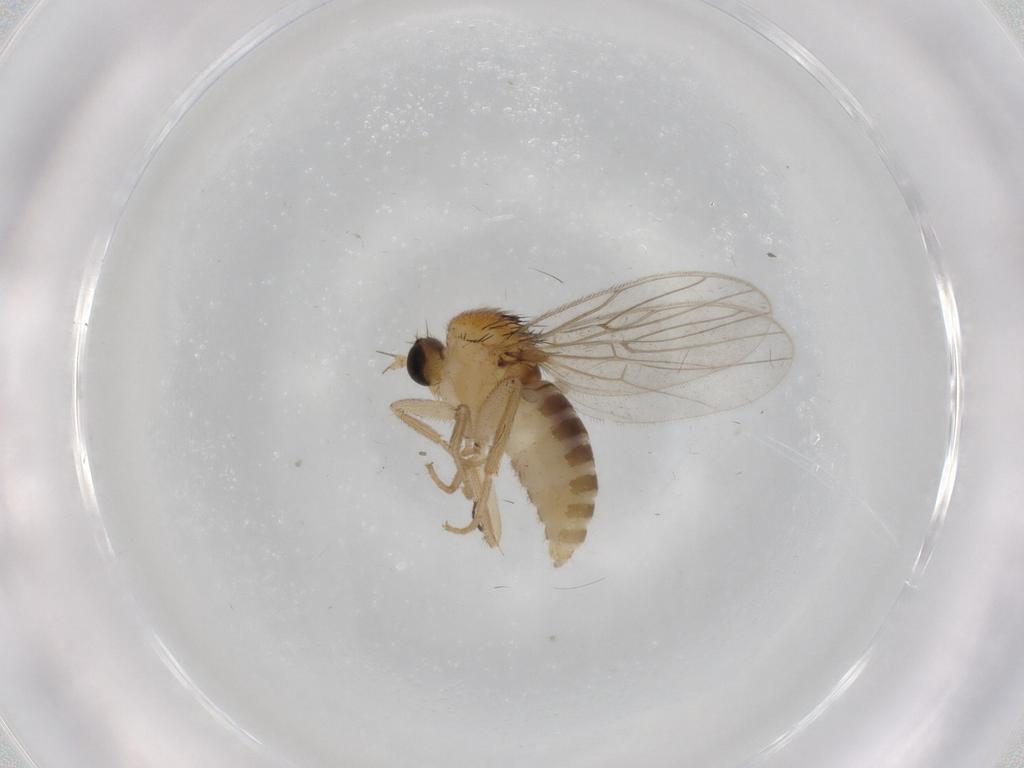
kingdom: Animalia
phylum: Arthropoda
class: Insecta
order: Diptera
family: Hybotidae
